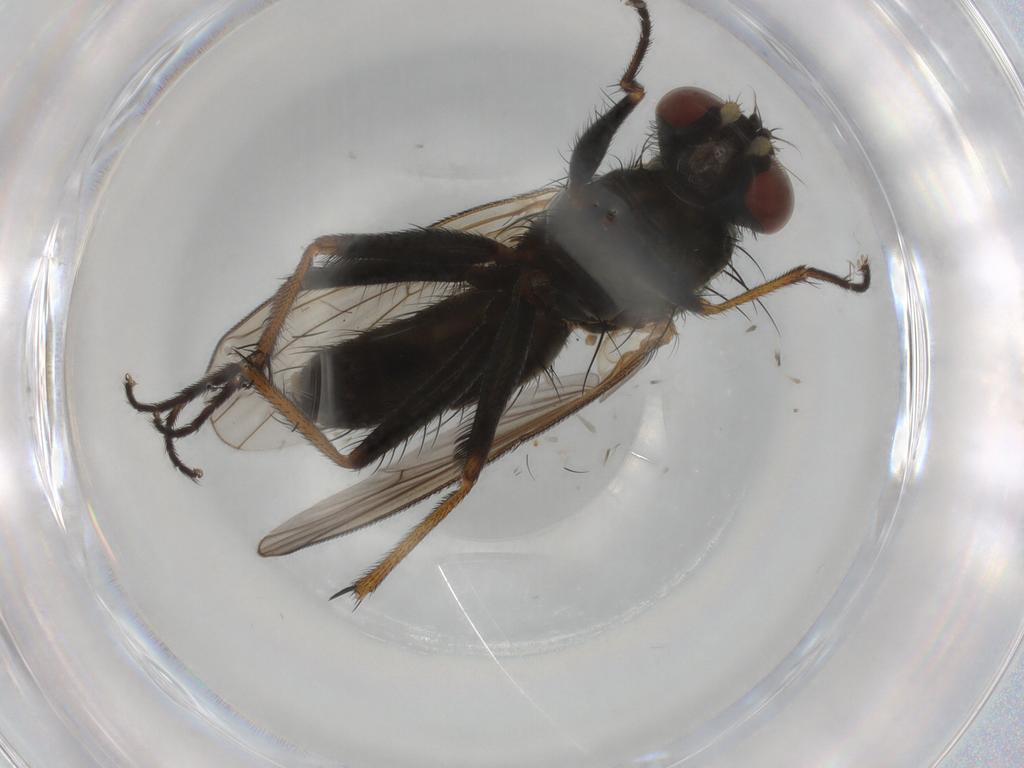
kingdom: Animalia
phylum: Arthropoda
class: Insecta
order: Diptera
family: Muscidae
